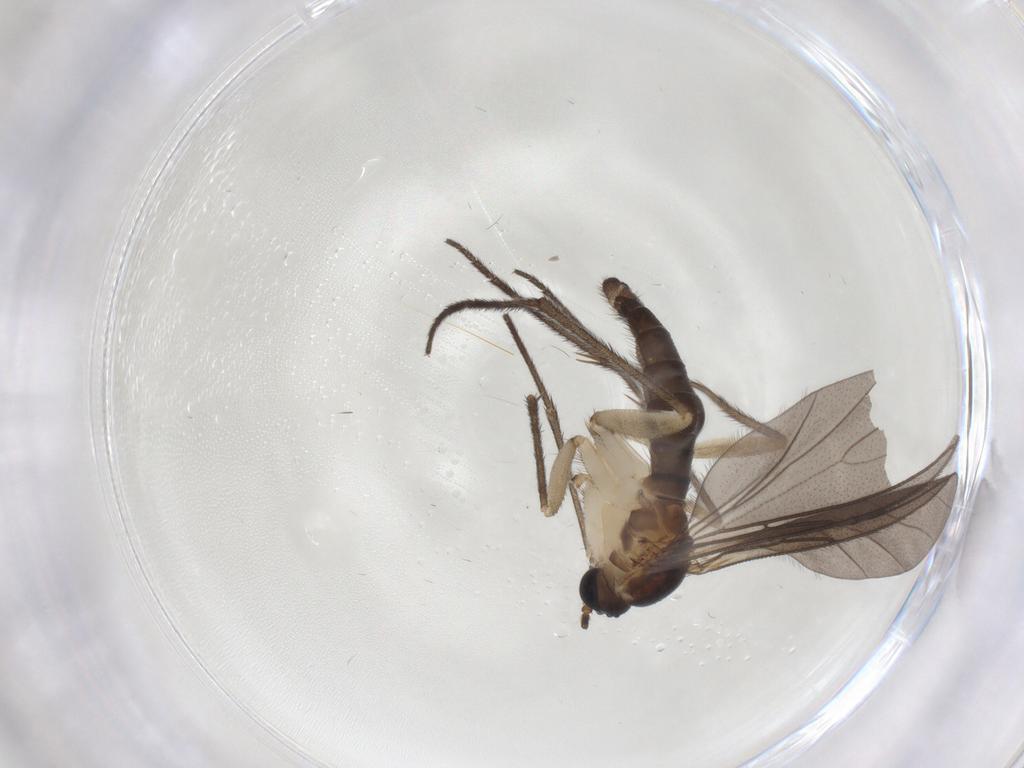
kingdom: Animalia
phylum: Arthropoda
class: Insecta
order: Diptera
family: Sciaridae
